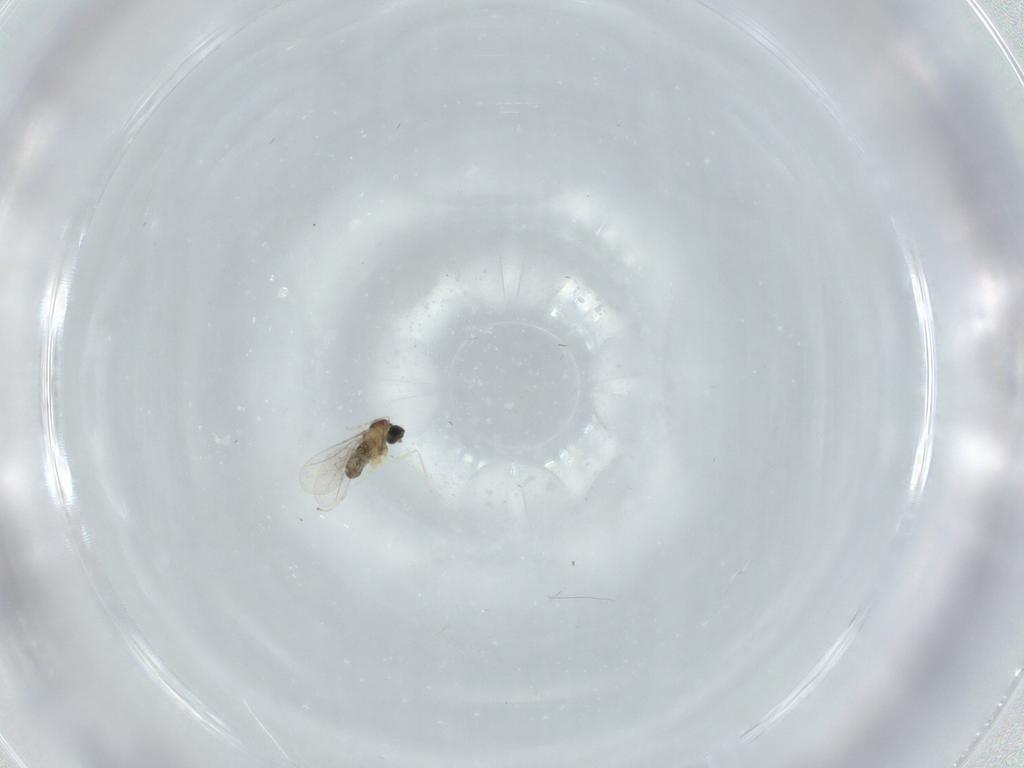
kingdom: Animalia
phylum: Arthropoda
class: Insecta
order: Diptera
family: Cecidomyiidae
